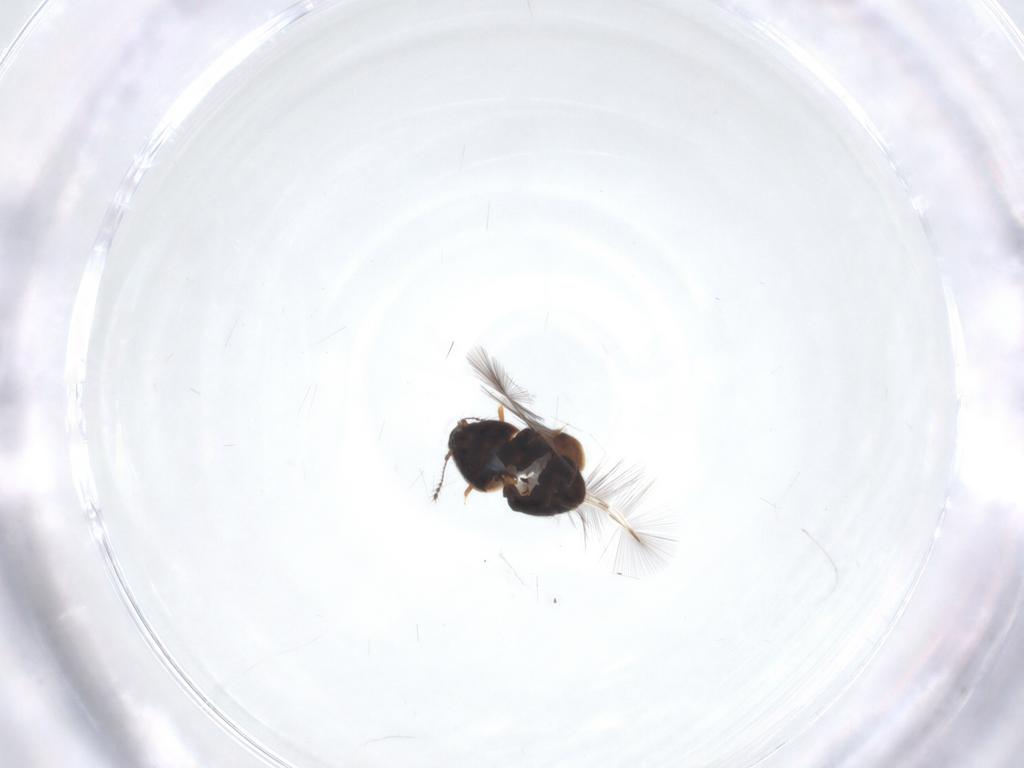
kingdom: Animalia
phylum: Arthropoda
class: Insecta
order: Coleoptera
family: Ptiliidae
